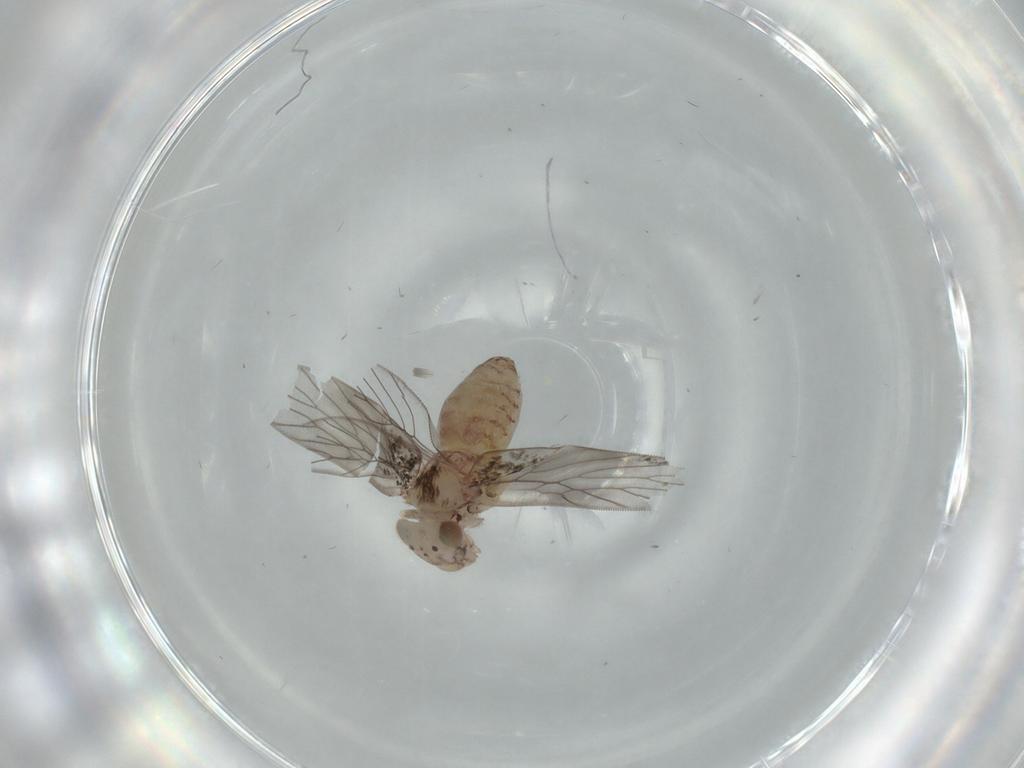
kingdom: Animalia
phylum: Arthropoda
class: Insecta
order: Psocodea
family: Lepidopsocidae
